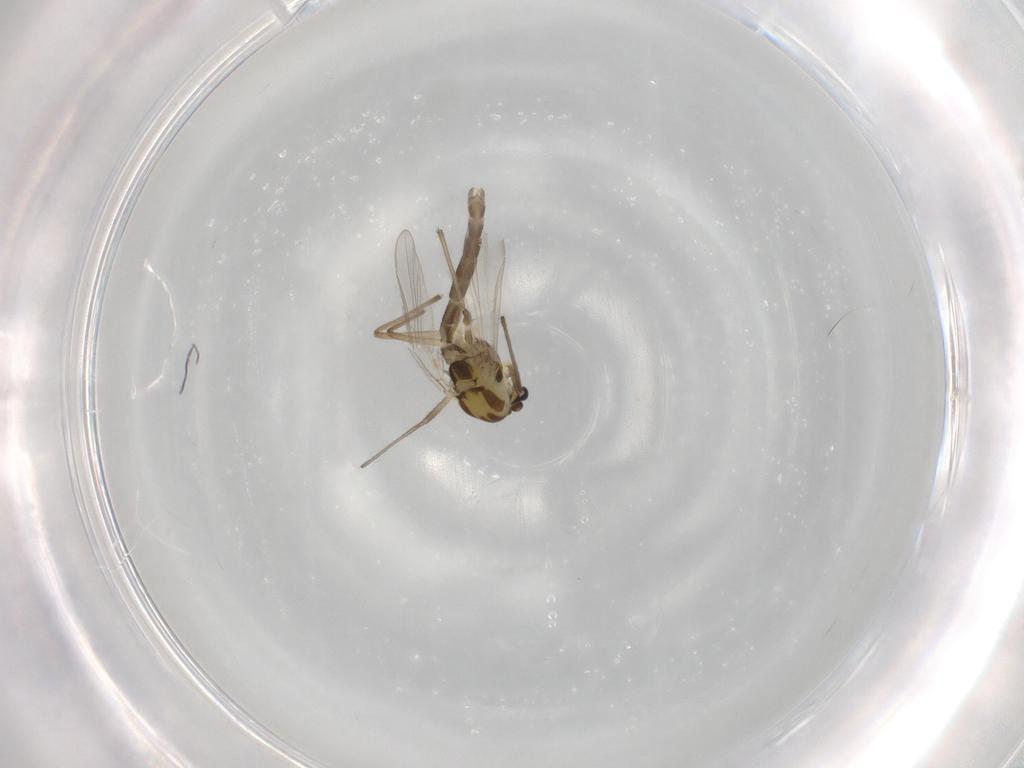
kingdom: Animalia
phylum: Arthropoda
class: Insecta
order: Diptera
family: Chironomidae
